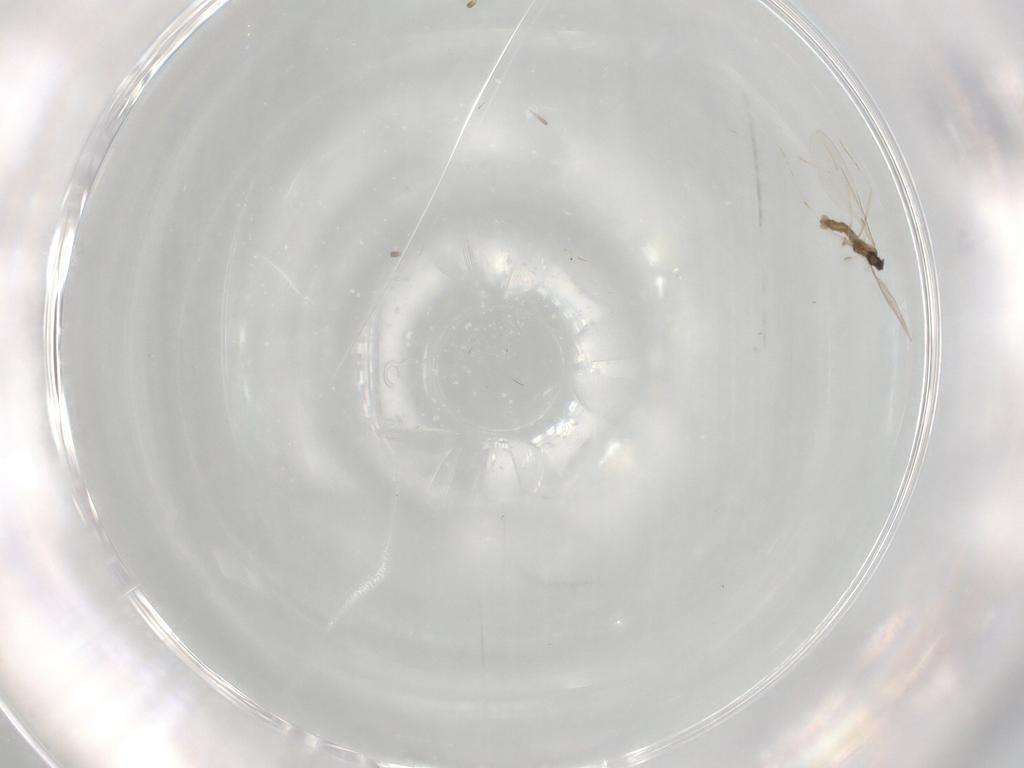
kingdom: Animalia
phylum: Arthropoda
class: Insecta
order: Diptera
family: Cecidomyiidae
